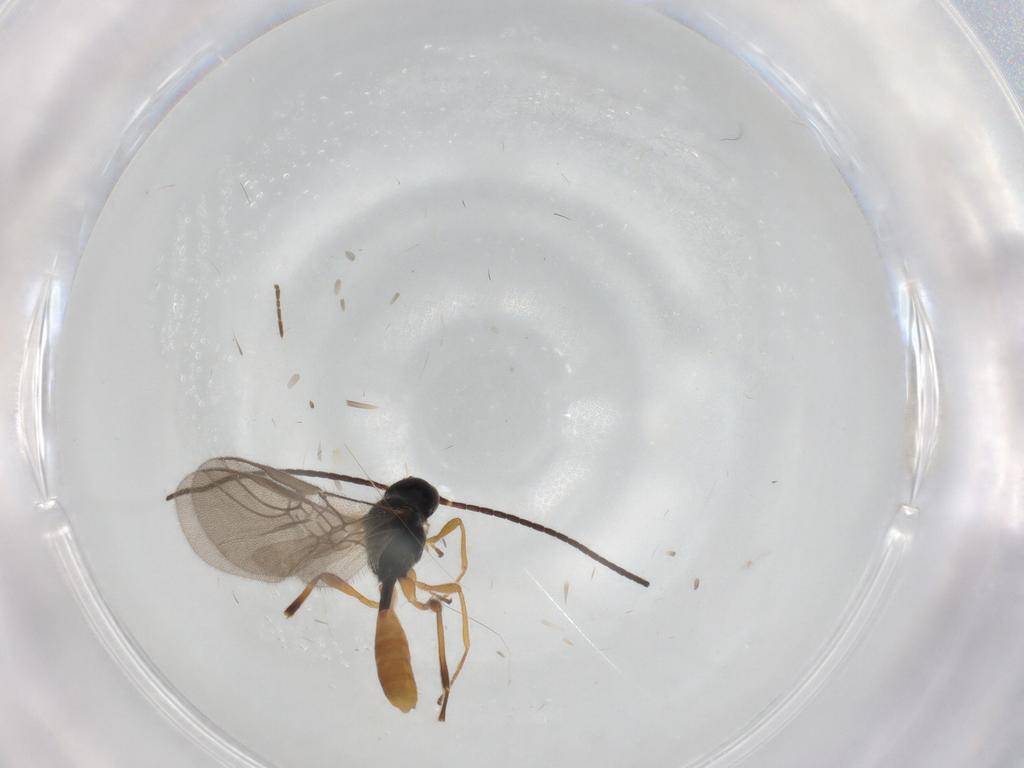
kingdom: Animalia
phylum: Arthropoda
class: Insecta
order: Hymenoptera
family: Braconidae
